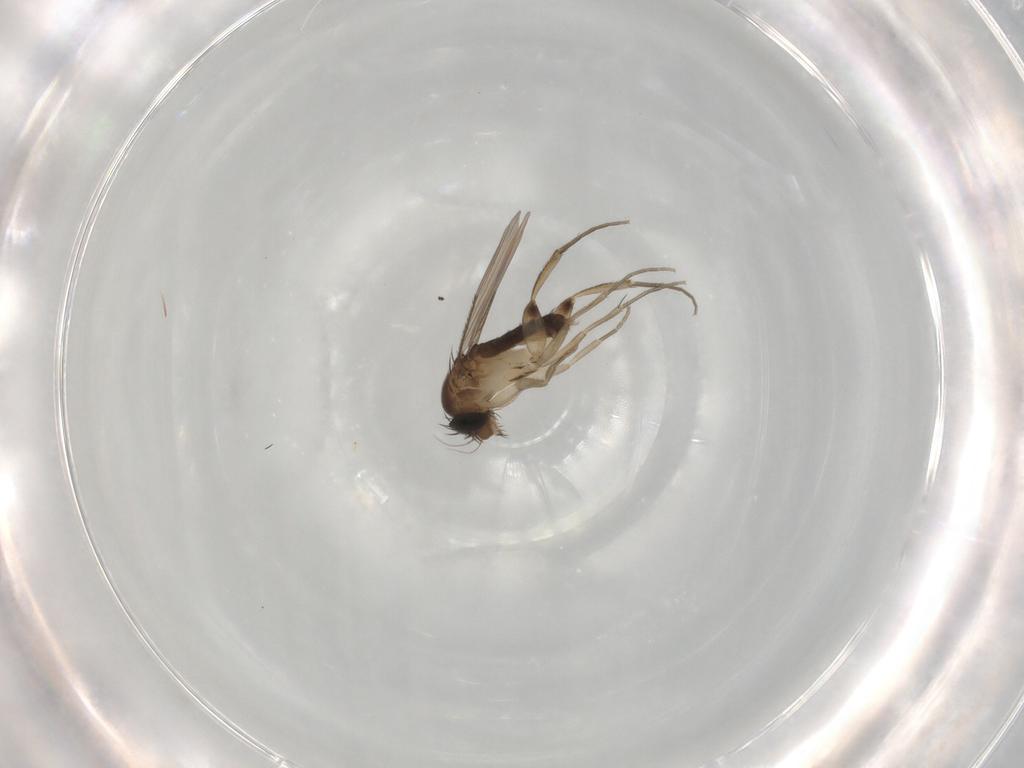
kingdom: Animalia
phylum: Arthropoda
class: Insecta
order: Diptera
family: Phoridae
